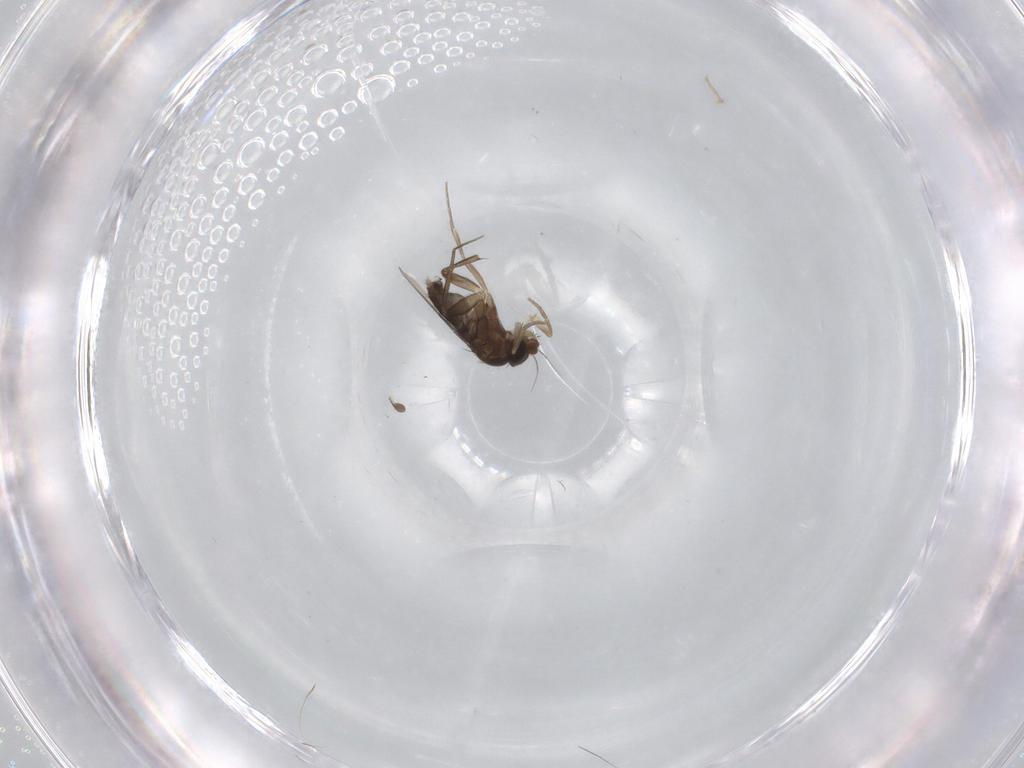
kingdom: Animalia
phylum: Arthropoda
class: Insecta
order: Diptera
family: Phoridae
